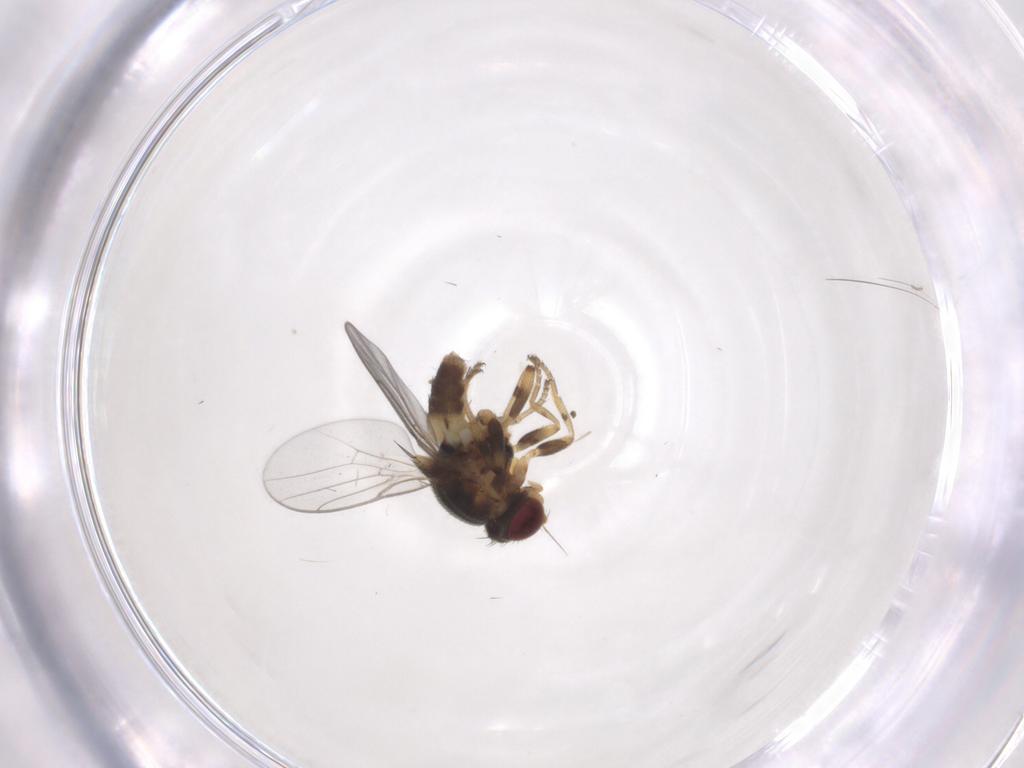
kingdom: Animalia
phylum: Arthropoda
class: Insecta
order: Diptera
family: Chloropidae
